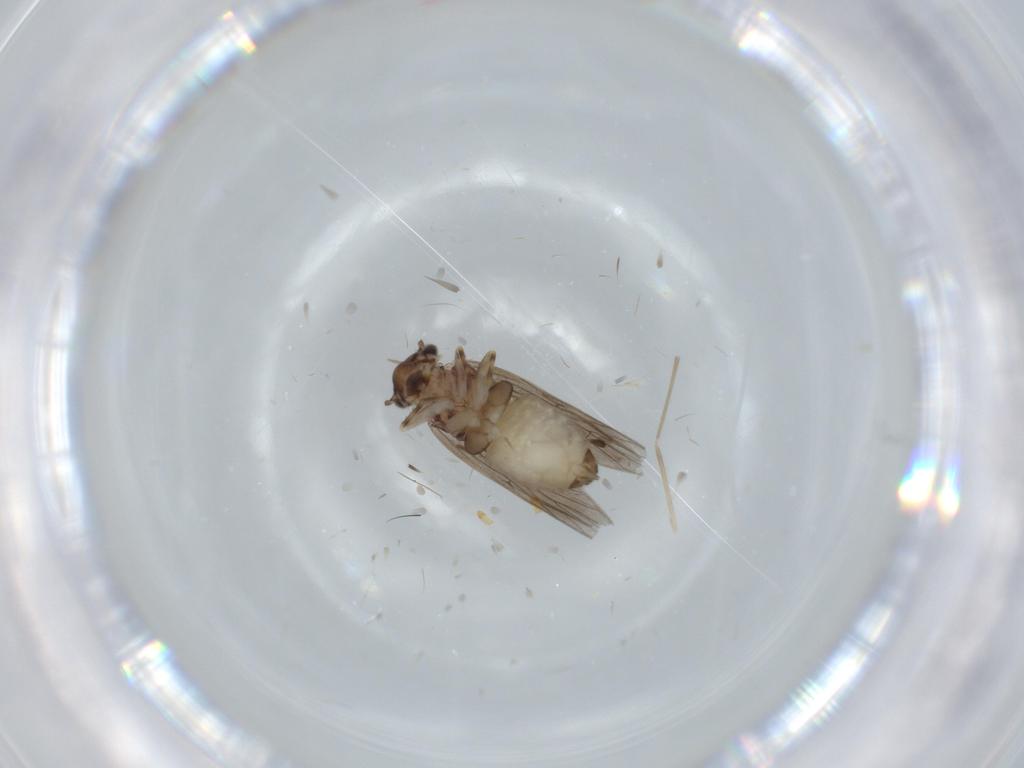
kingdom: Animalia
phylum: Arthropoda
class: Insecta
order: Psocodea
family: Lepidopsocidae
